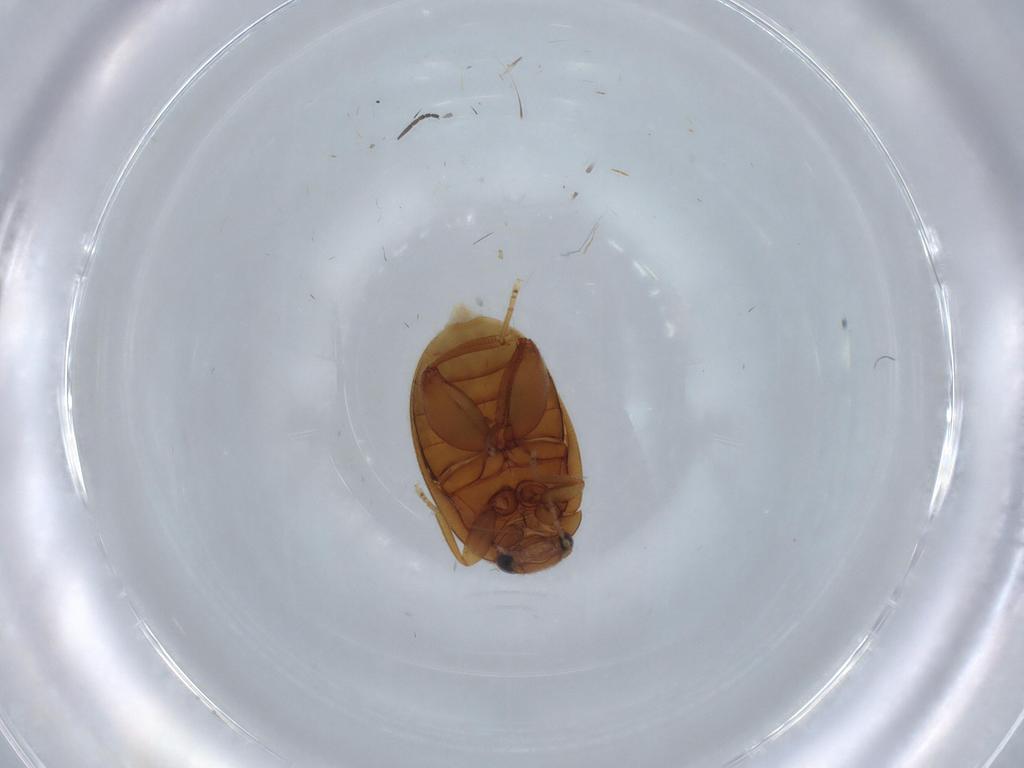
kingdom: Animalia
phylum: Arthropoda
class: Insecta
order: Coleoptera
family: Scirtidae
